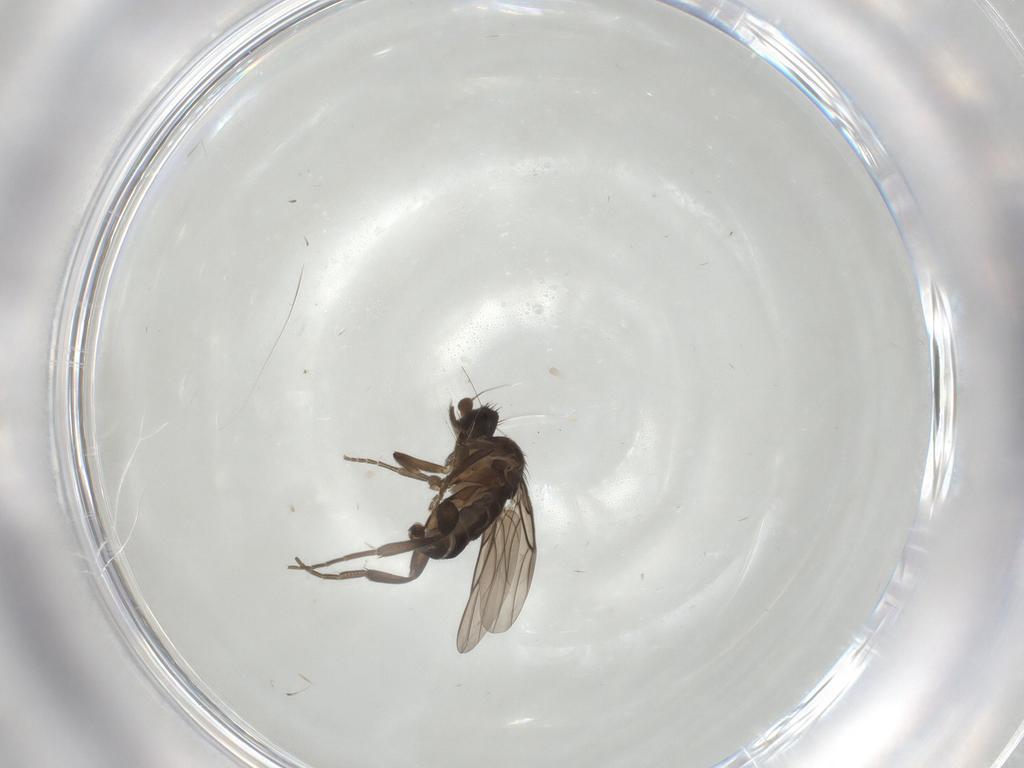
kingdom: Animalia
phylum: Arthropoda
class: Insecta
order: Diptera
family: Phoridae
